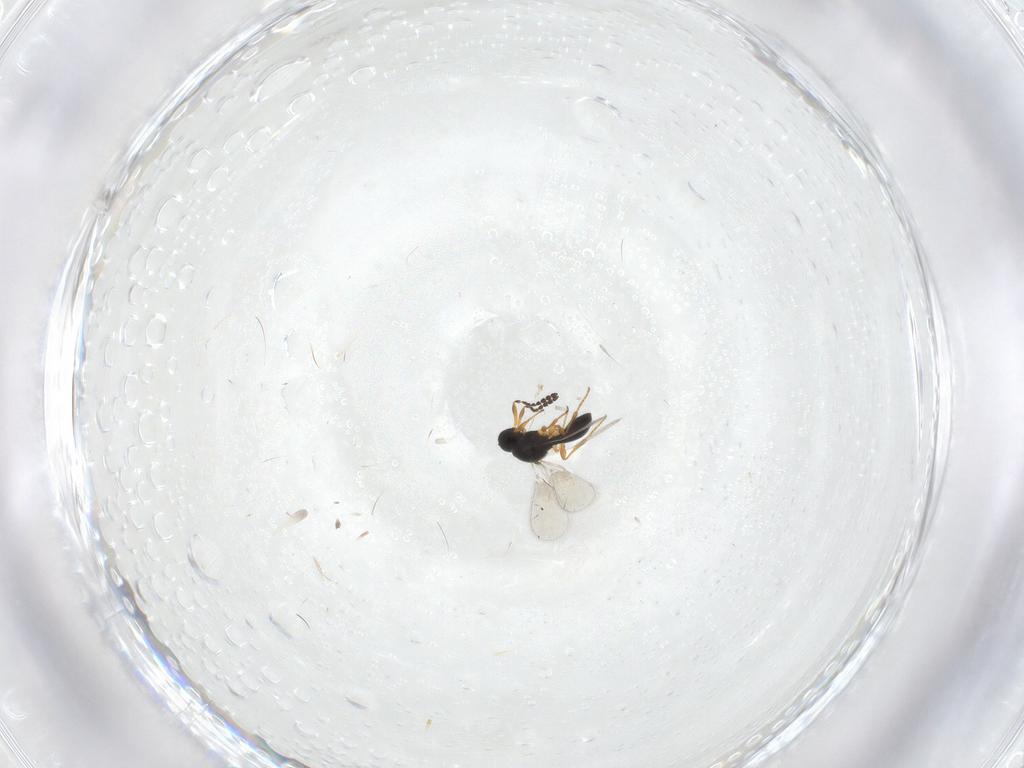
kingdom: Animalia
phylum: Arthropoda
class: Insecta
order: Hymenoptera
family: Platygastridae
